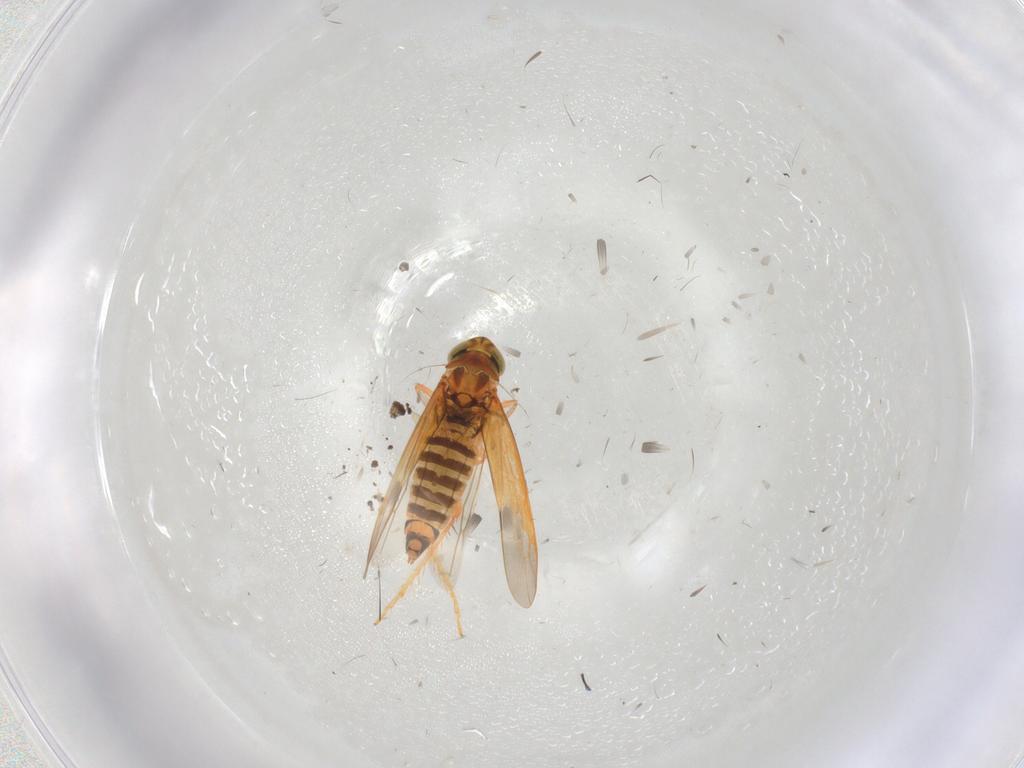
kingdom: Animalia
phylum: Arthropoda
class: Insecta
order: Hemiptera
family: Cicadellidae
